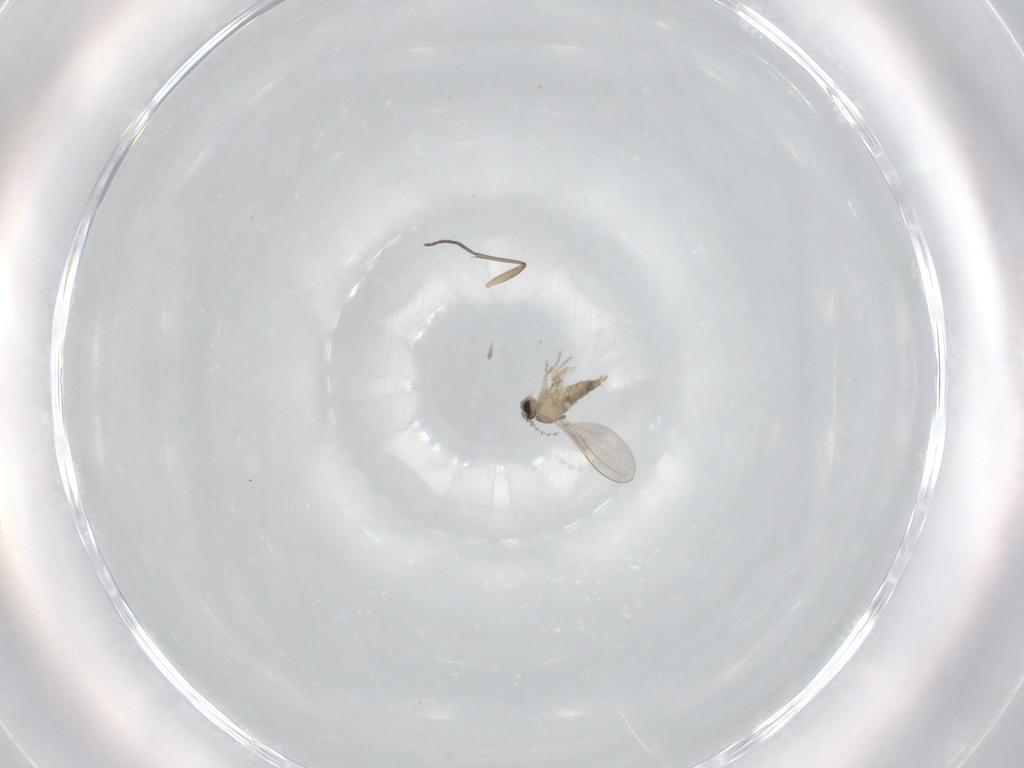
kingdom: Animalia
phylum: Arthropoda
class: Insecta
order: Diptera
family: Cecidomyiidae
